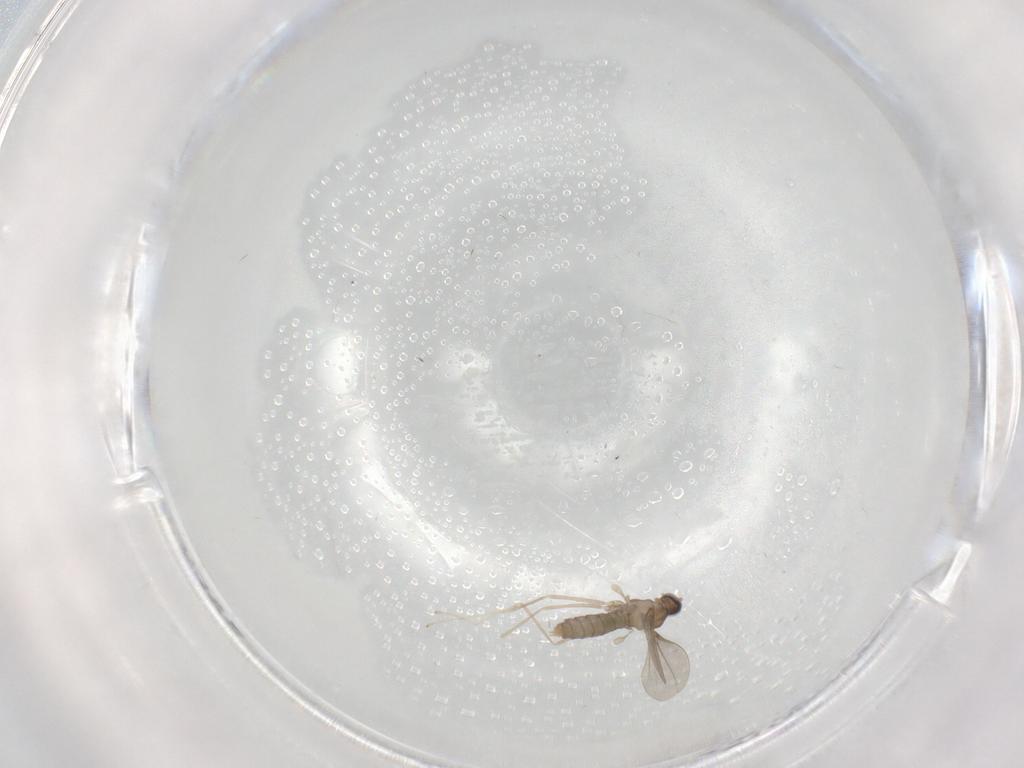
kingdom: Animalia
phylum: Arthropoda
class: Insecta
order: Diptera
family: Cecidomyiidae
